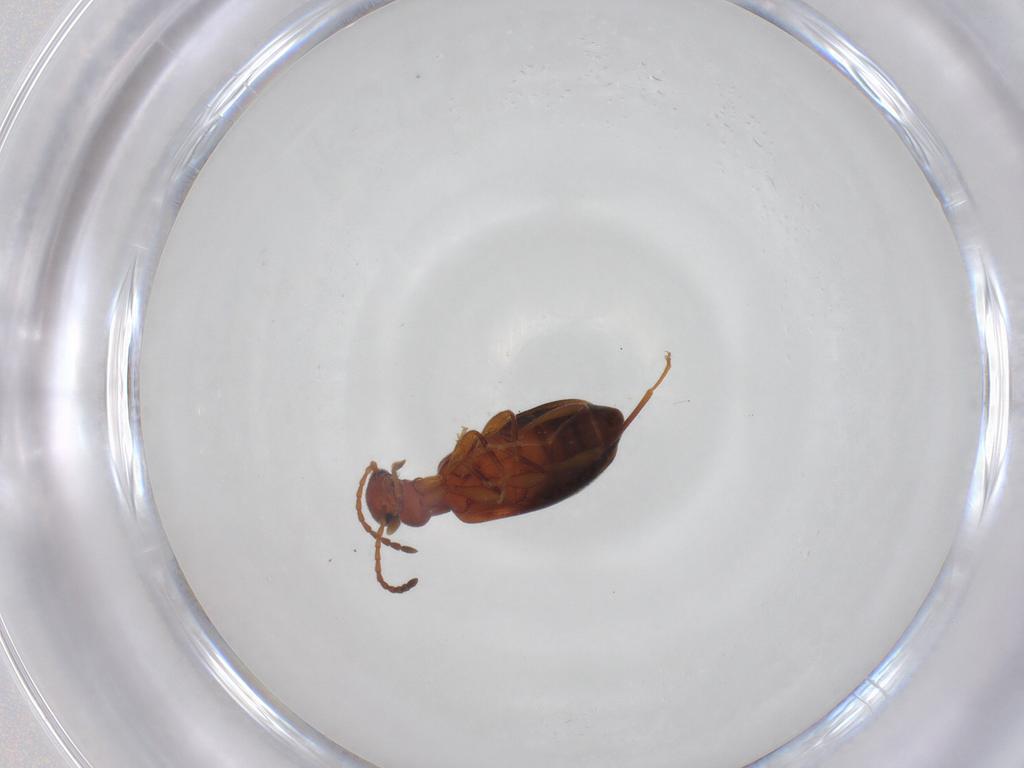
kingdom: Animalia
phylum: Arthropoda
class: Insecta
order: Coleoptera
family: Anthicidae
